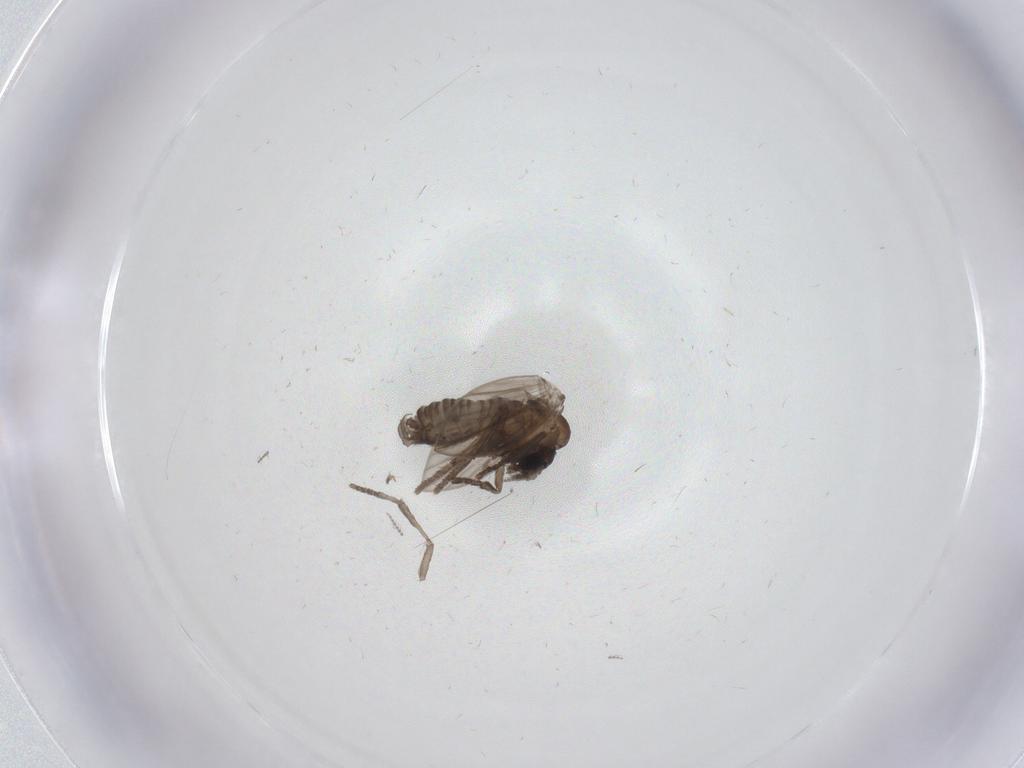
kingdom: Animalia
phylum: Arthropoda
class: Insecta
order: Diptera
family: Psychodidae
